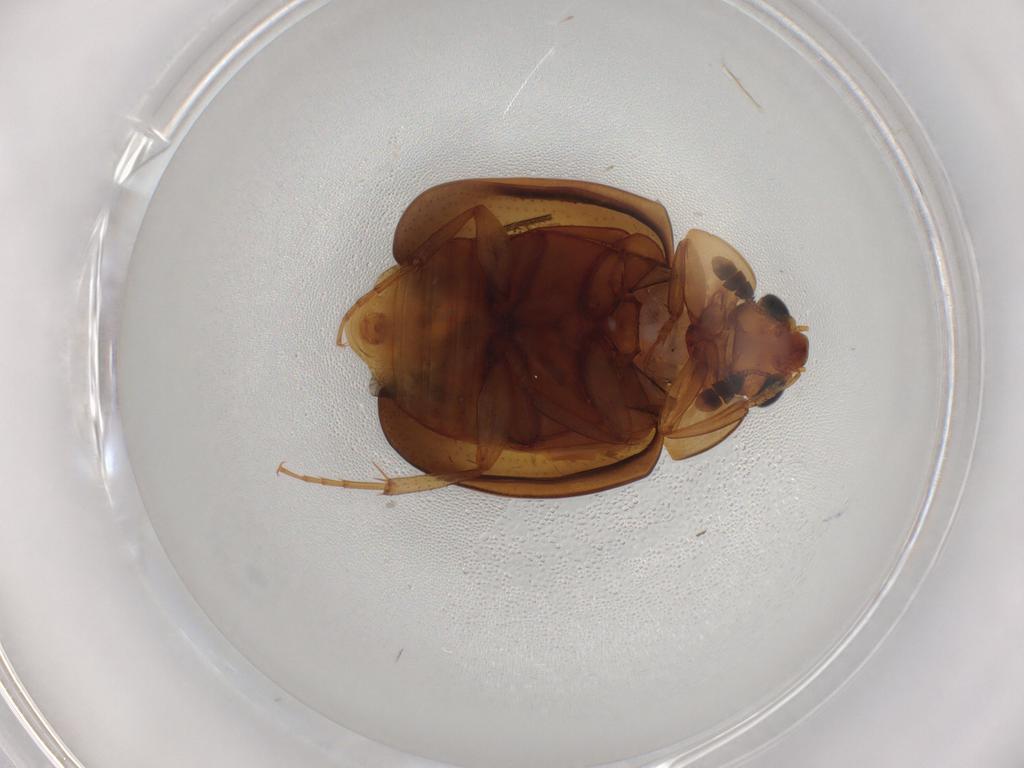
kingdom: Animalia
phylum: Arthropoda
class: Insecta
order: Coleoptera
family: Nitidulidae
